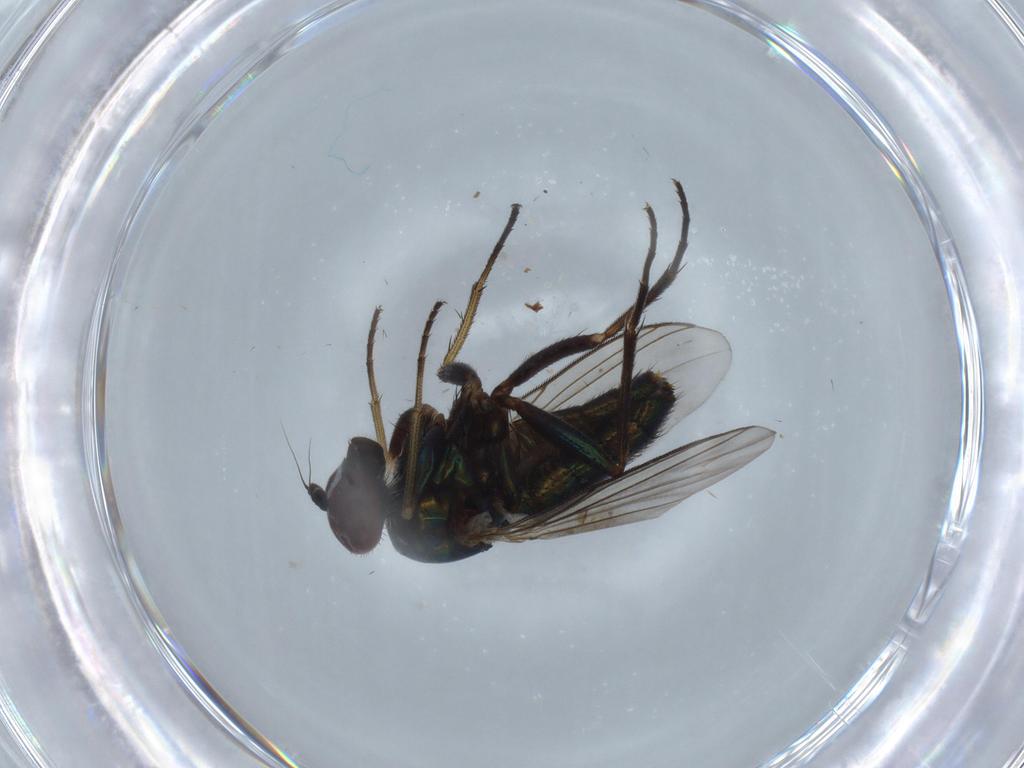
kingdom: Animalia
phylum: Arthropoda
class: Insecta
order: Diptera
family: Dolichopodidae
